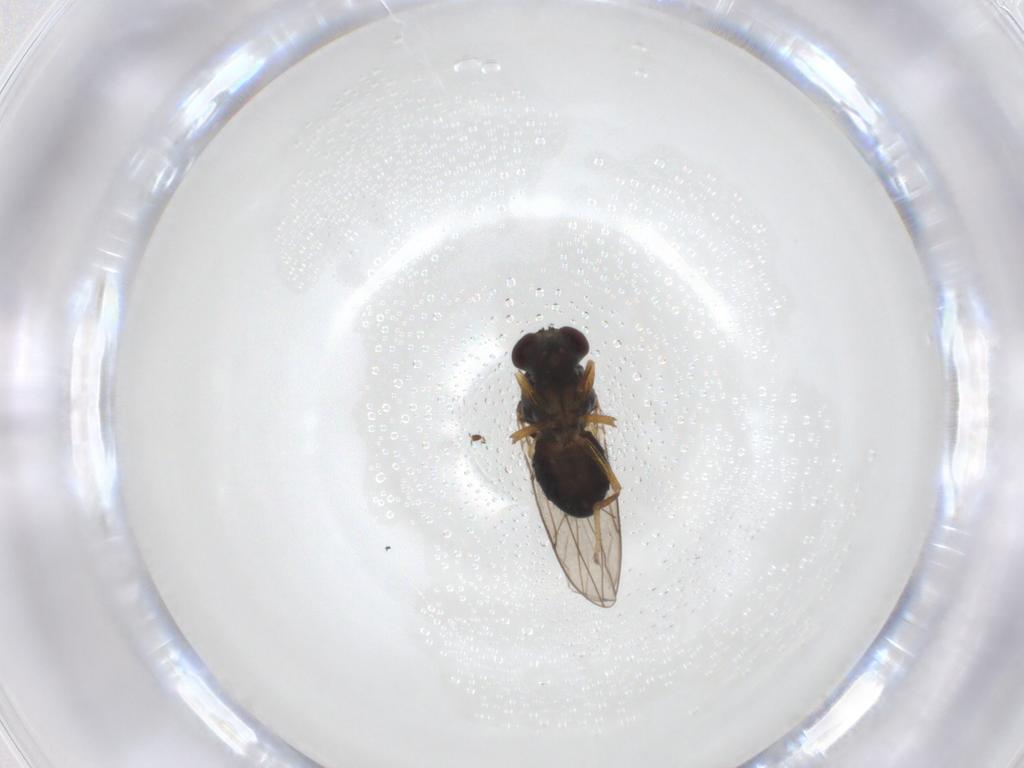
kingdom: Animalia
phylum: Arthropoda
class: Insecta
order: Diptera
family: Ephydridae
